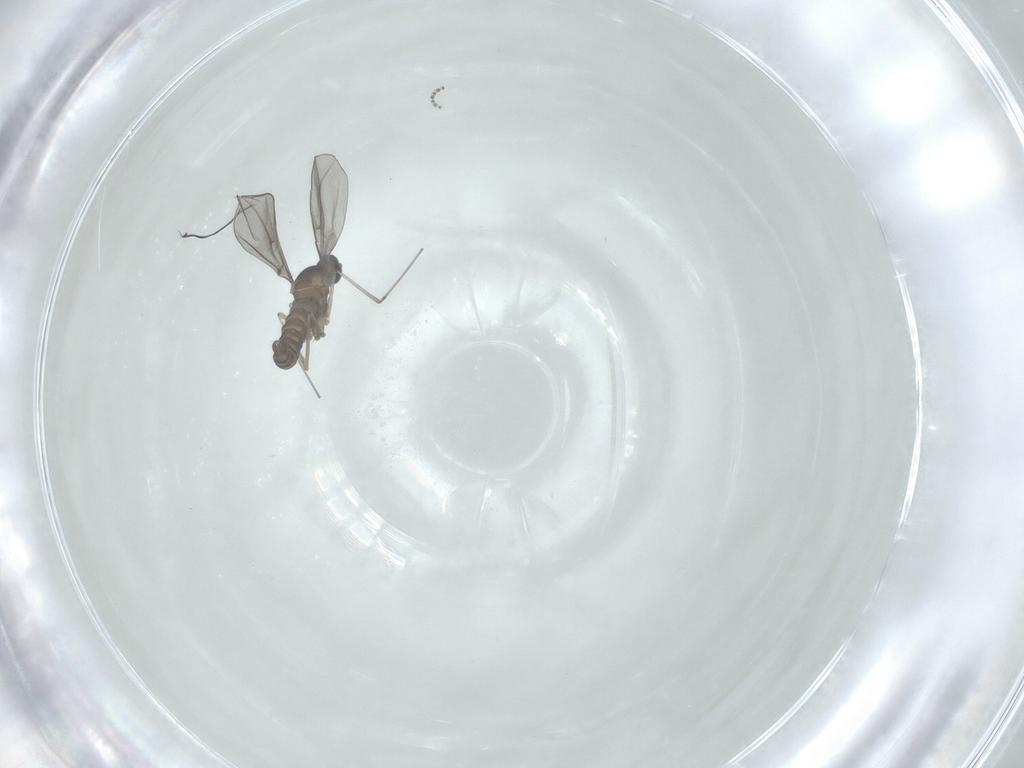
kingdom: Animalia
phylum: Arthropoda
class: Insecta
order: Diptera
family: Cecidomyiidae
